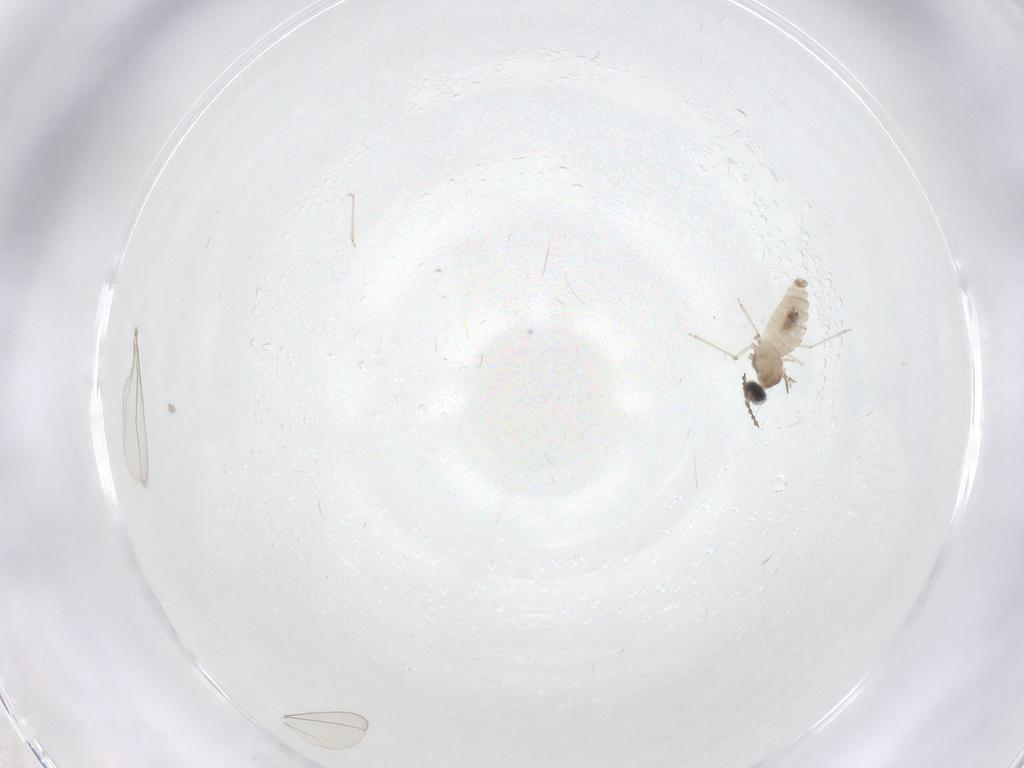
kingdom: Animalia
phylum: Arthropoda
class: Insecta
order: Diptera
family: Cecidomyiidae
